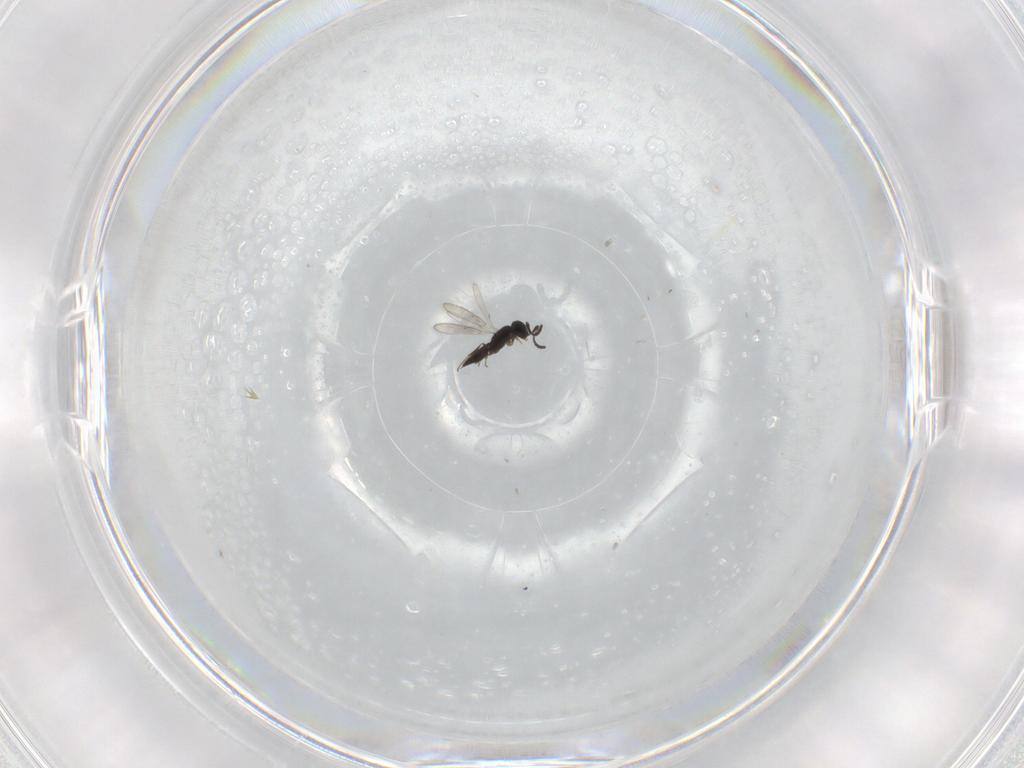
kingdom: Animalia
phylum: Arthropoda
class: Insecta
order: Hymenoptera
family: Scelionidae
